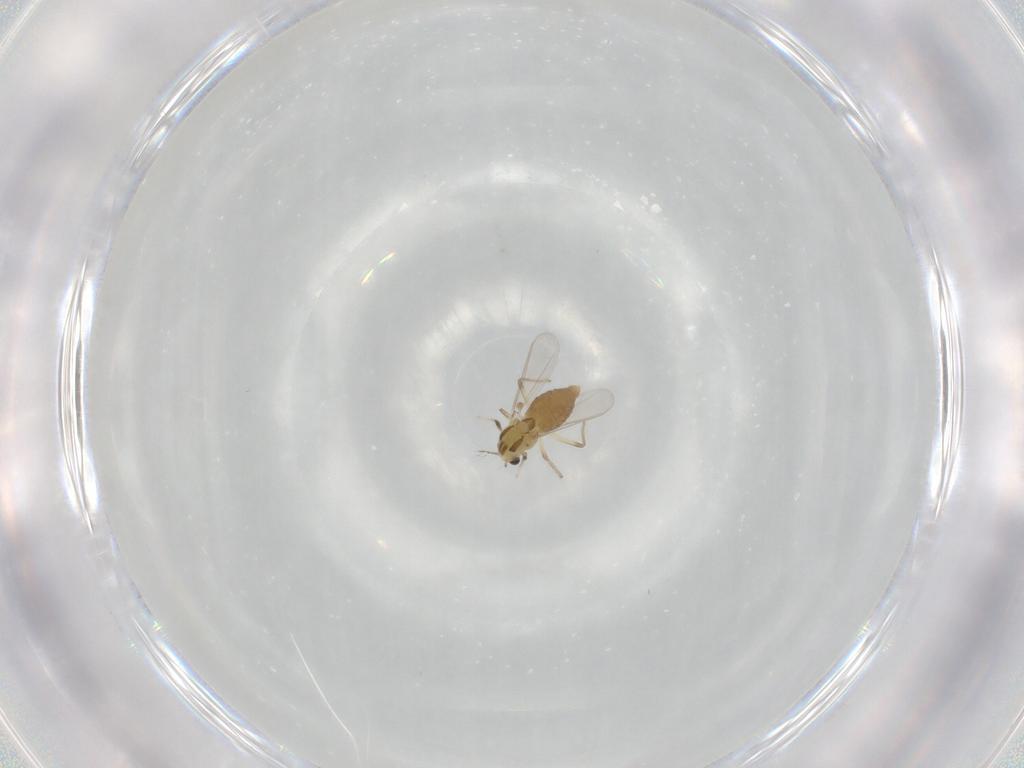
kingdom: Animalia
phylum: Arthropoda
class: Insecta
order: Diptera
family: Chironomidae
